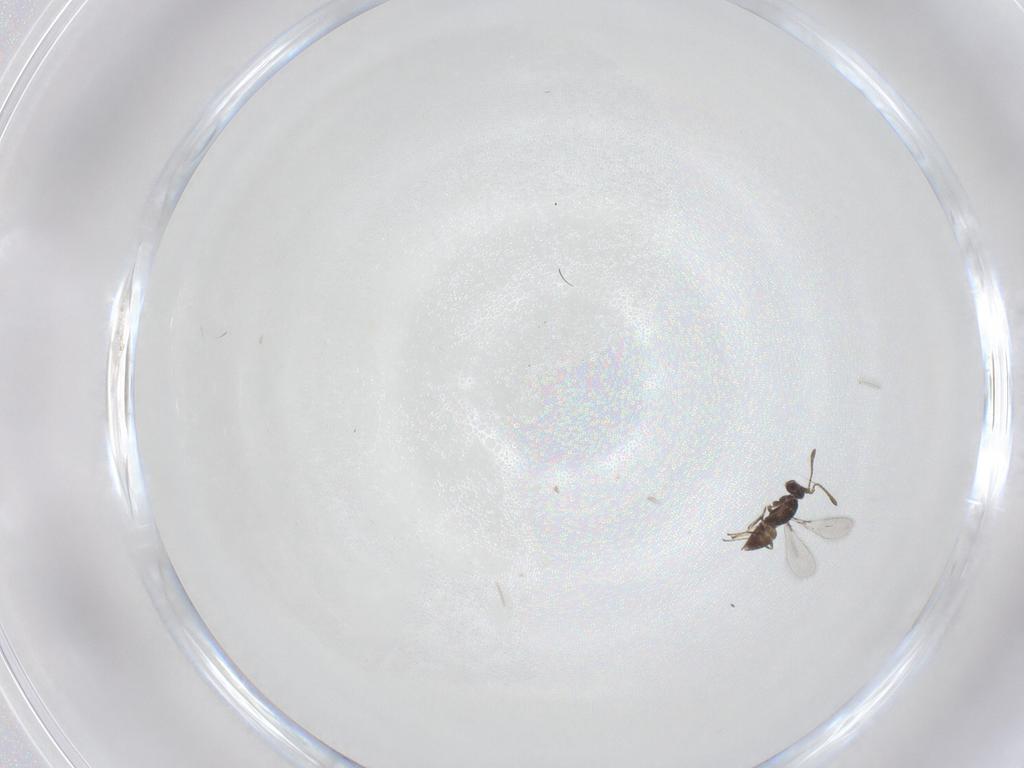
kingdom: Animalia
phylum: Arthropoda
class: Insecta
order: Hymenoptera
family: Mymaridae
